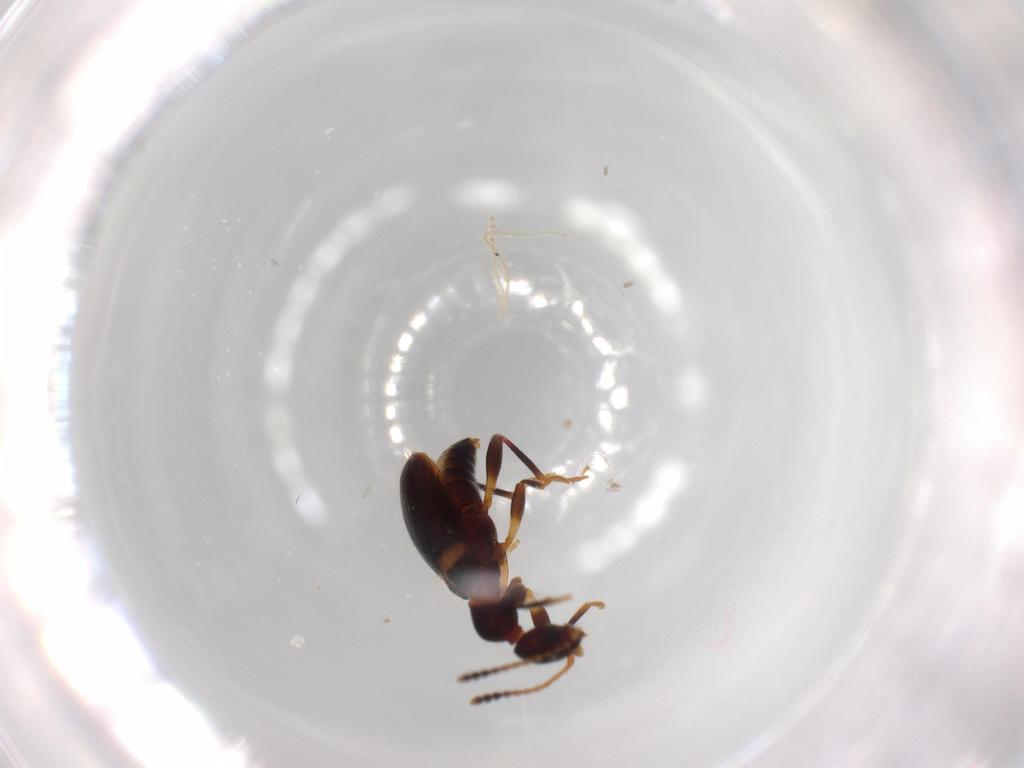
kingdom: Animalia
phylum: Arthropoda
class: Insecta
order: Coleoptera
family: Anthicidae
